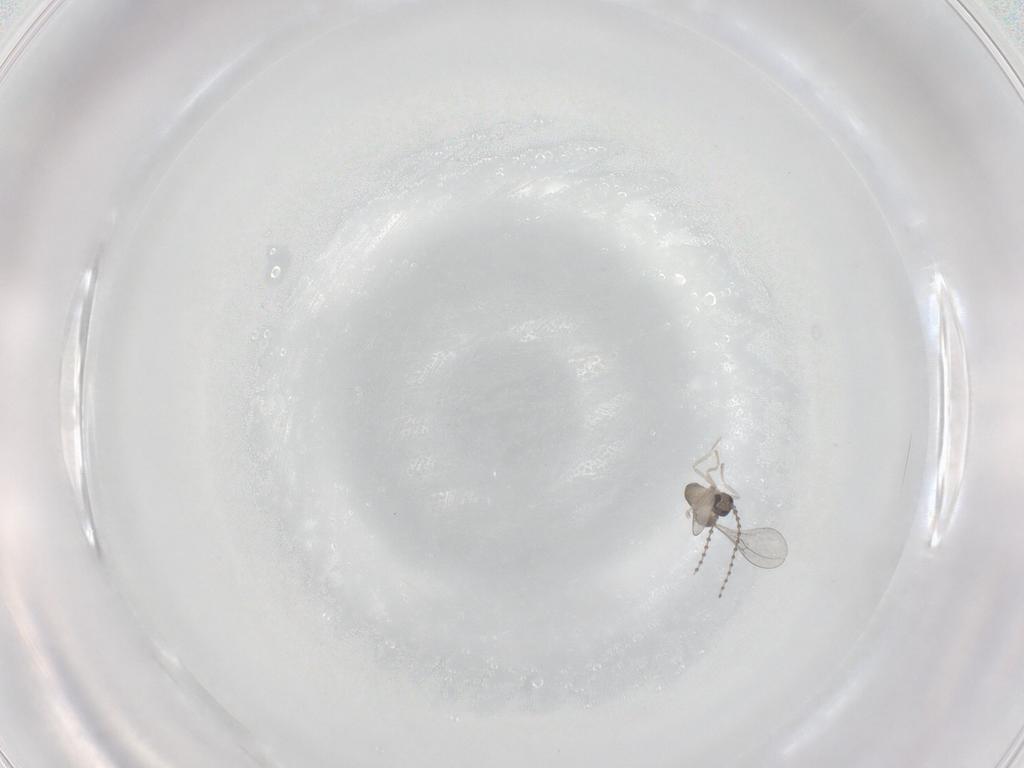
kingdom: Animalia
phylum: Arthropoda
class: Insecta
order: Diptera
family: Cecidomyiidae
